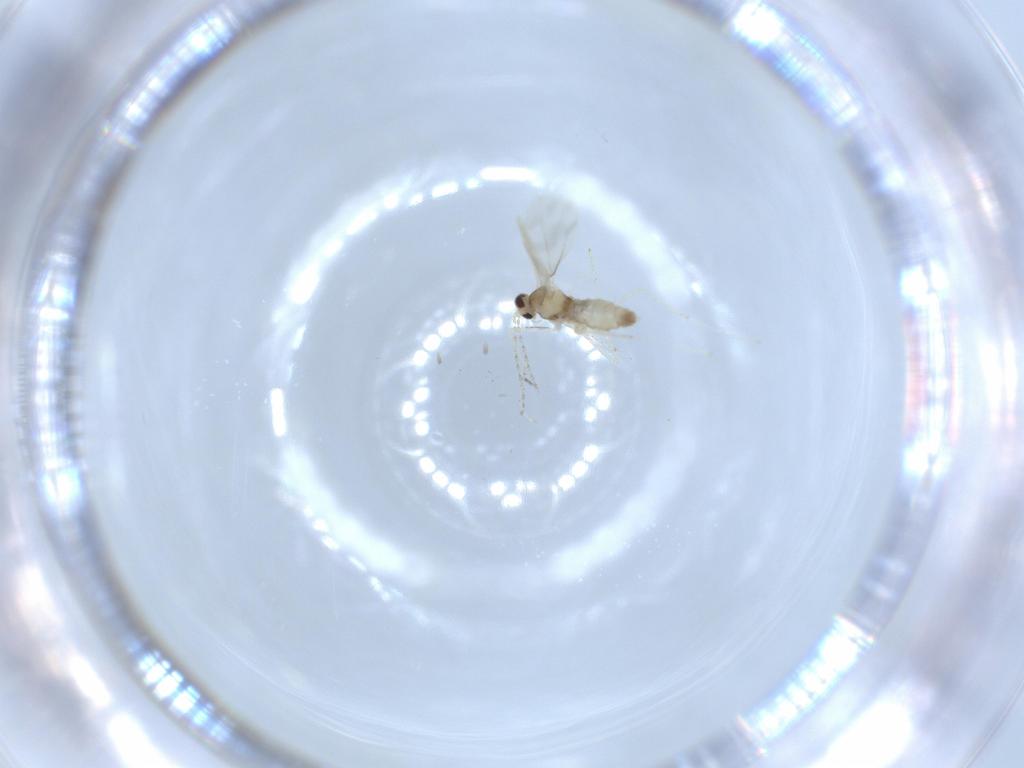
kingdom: Animalia
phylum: Arthropoda
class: Insecta
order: Diptera
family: Cecidomyiidae
